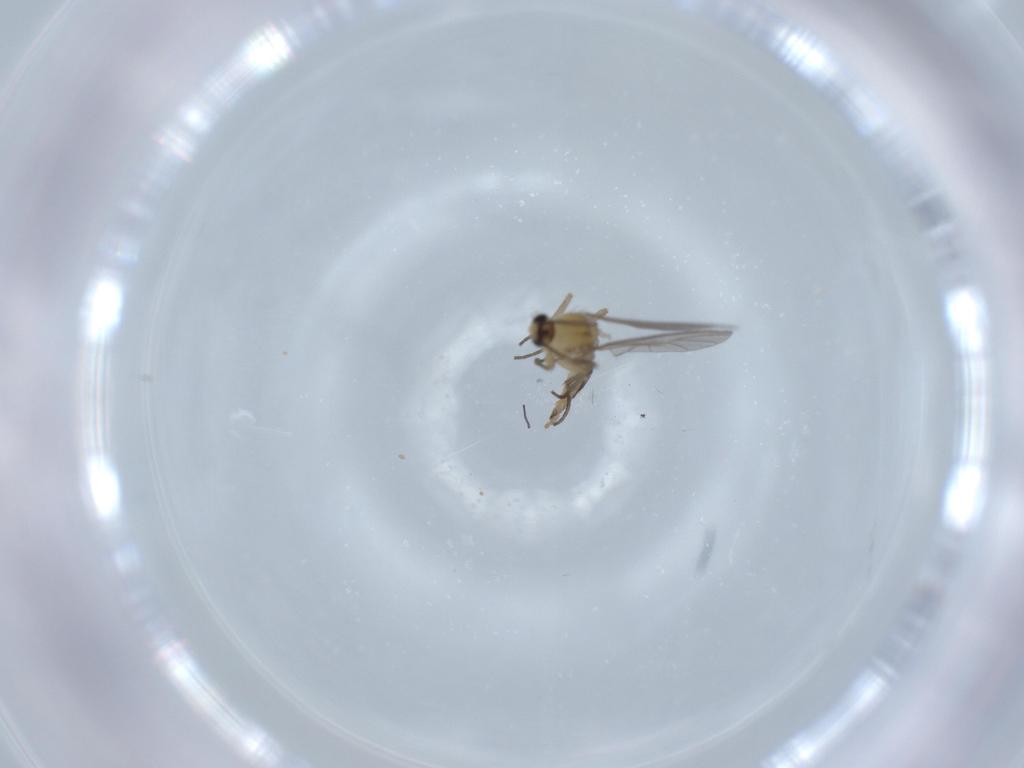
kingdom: Animalia
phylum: Arthropoda
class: Insecta
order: Diptera
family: Sciaridae
